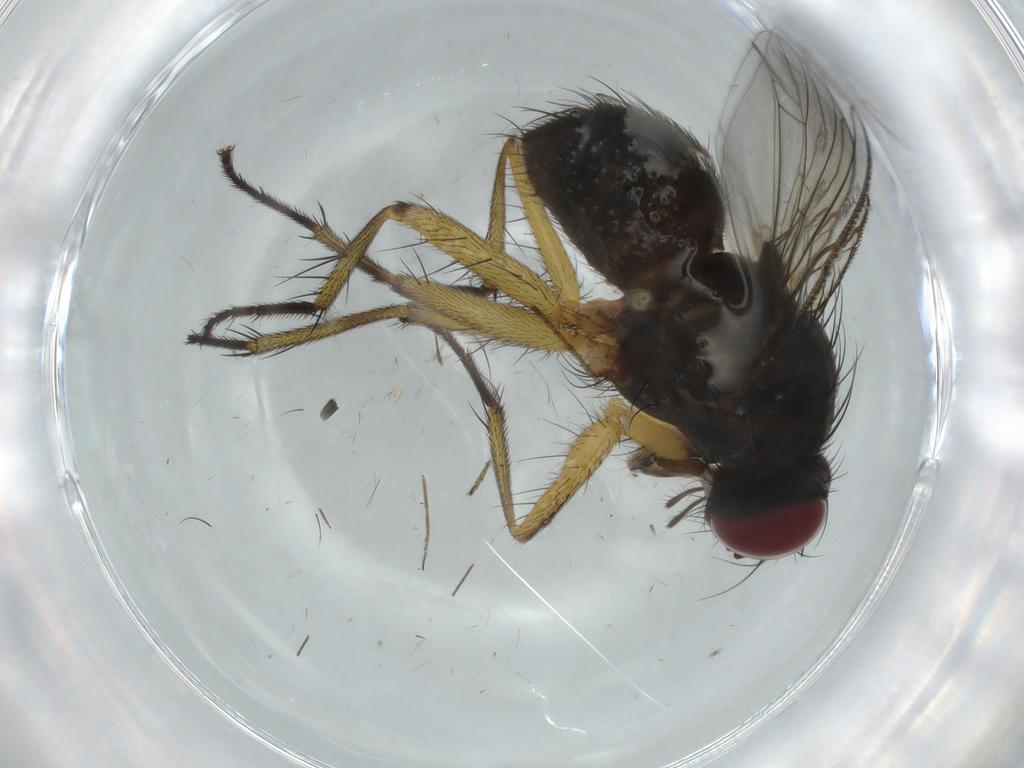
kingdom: Animalia
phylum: Arthropoda
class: Insecta
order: Diptera
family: Muscidae
